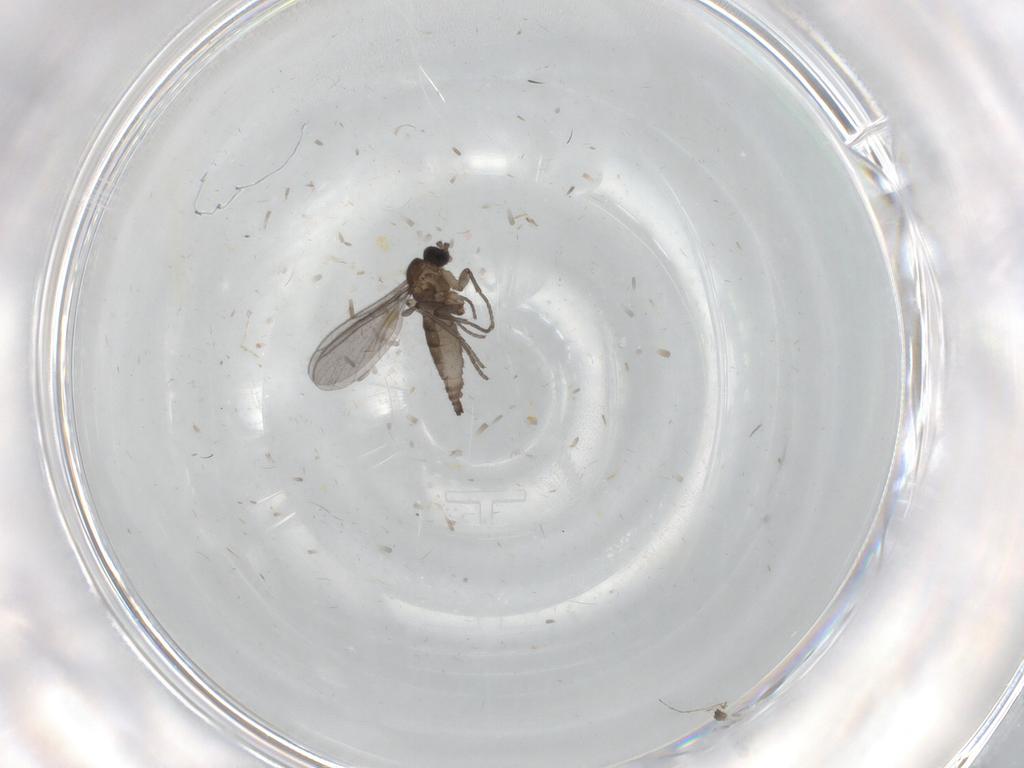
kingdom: Animalia
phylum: Arthropoda
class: Insecta
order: Diptera
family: Sciaridae
